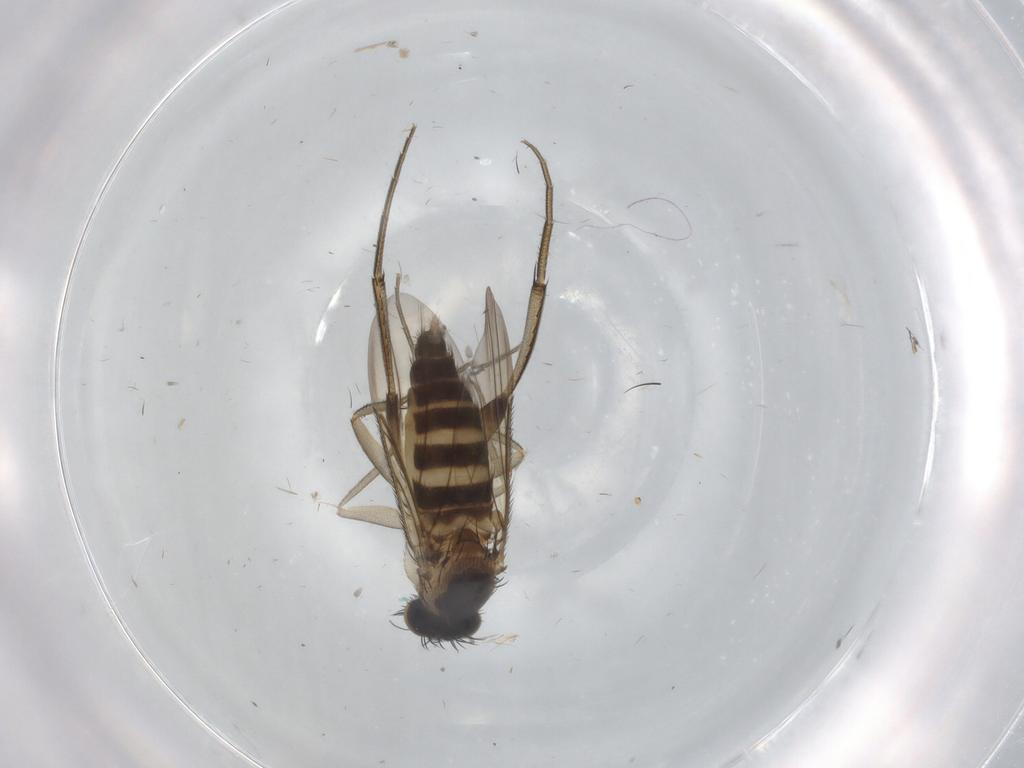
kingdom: Animalia
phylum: Arthropoda
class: Insecta
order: Diptera
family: Phoridae
